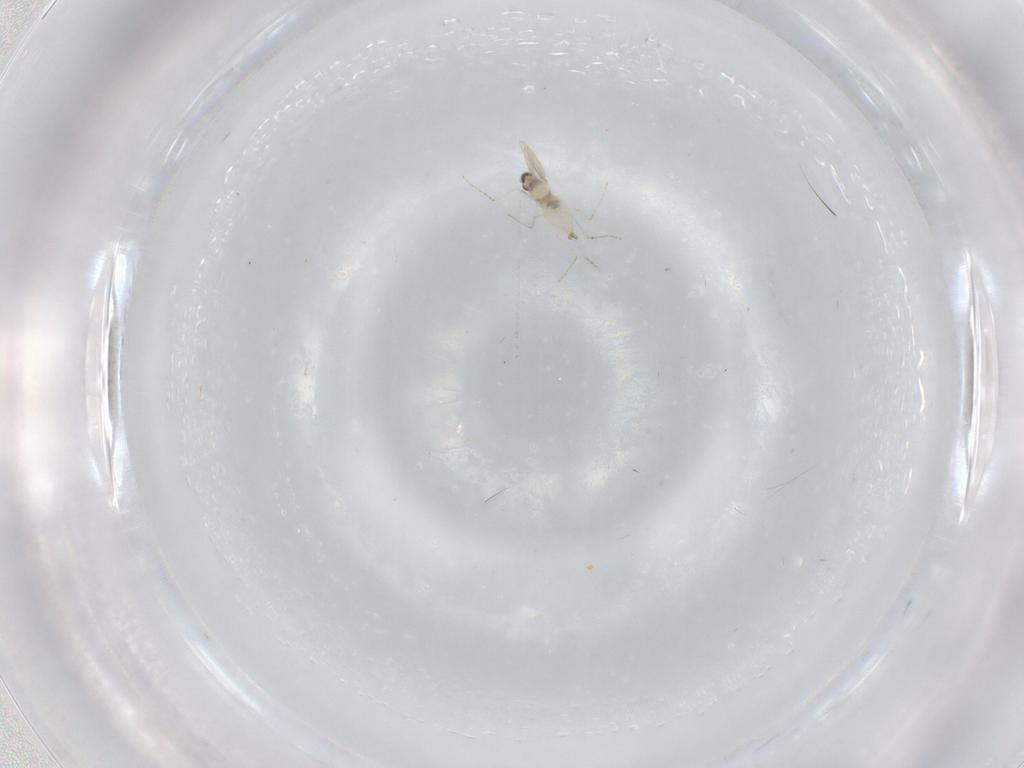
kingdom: Animalia
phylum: Arthropoda
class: Insecta
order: Diptera
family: Cecidomyiidae
